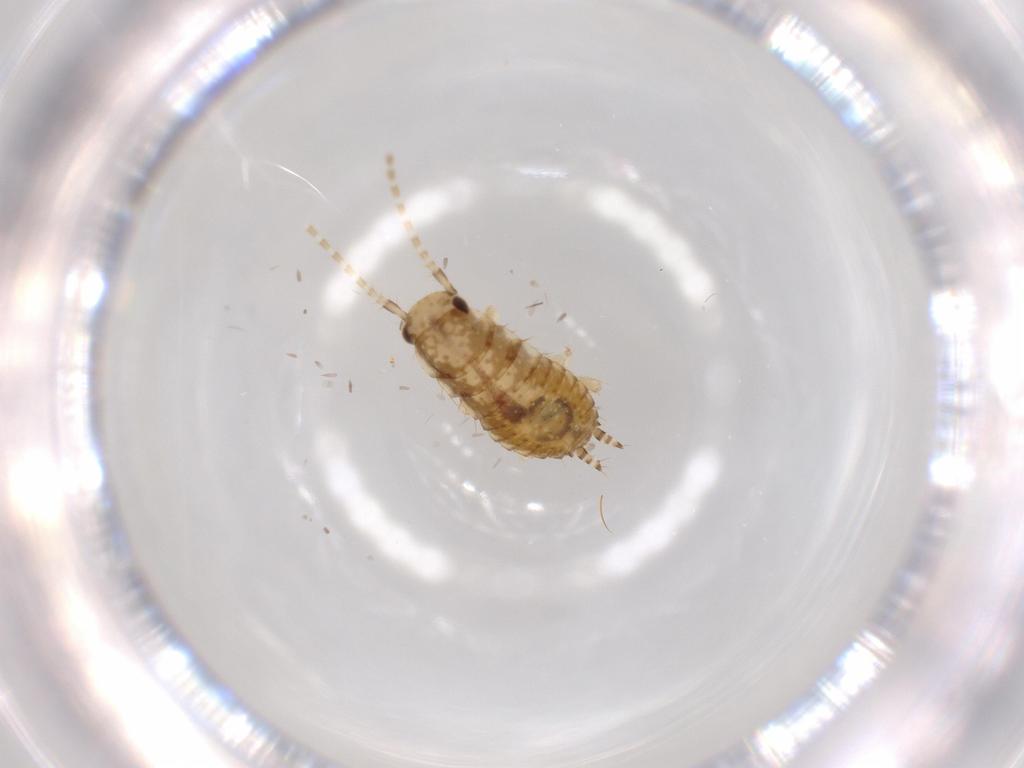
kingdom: Animalia
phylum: Arthropoda
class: Insecta
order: Blattodea
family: Ectobiidae
